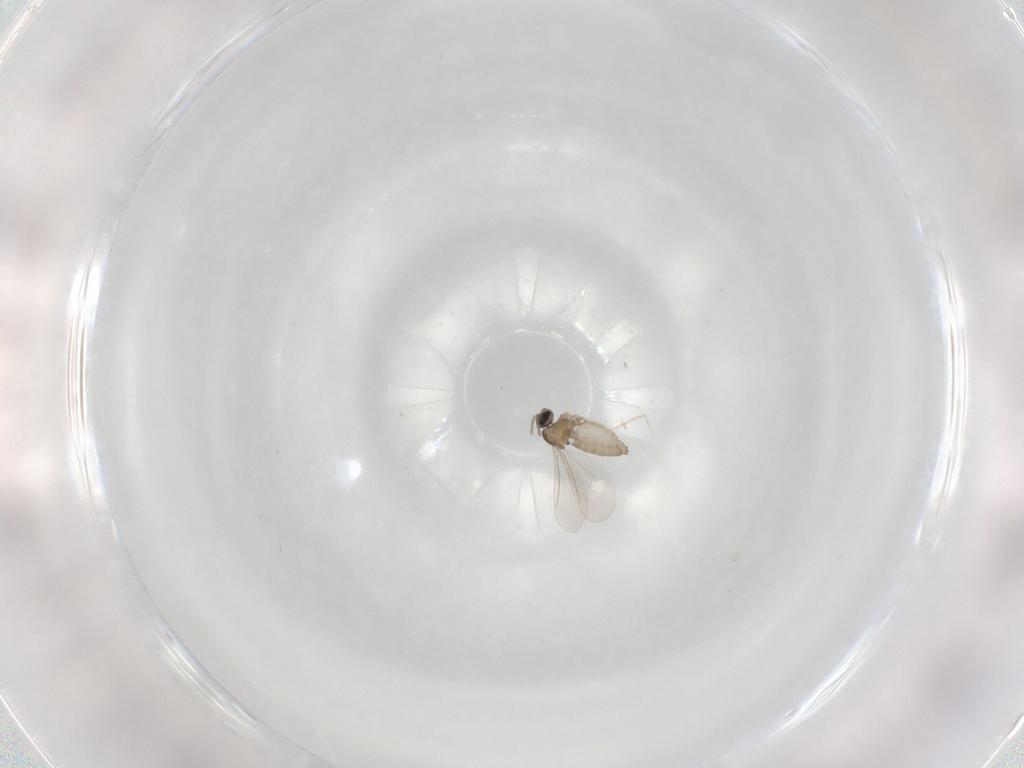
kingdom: Animalia
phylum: Arthropoda
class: Insecta
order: Diptera
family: Cecidomyiidae
